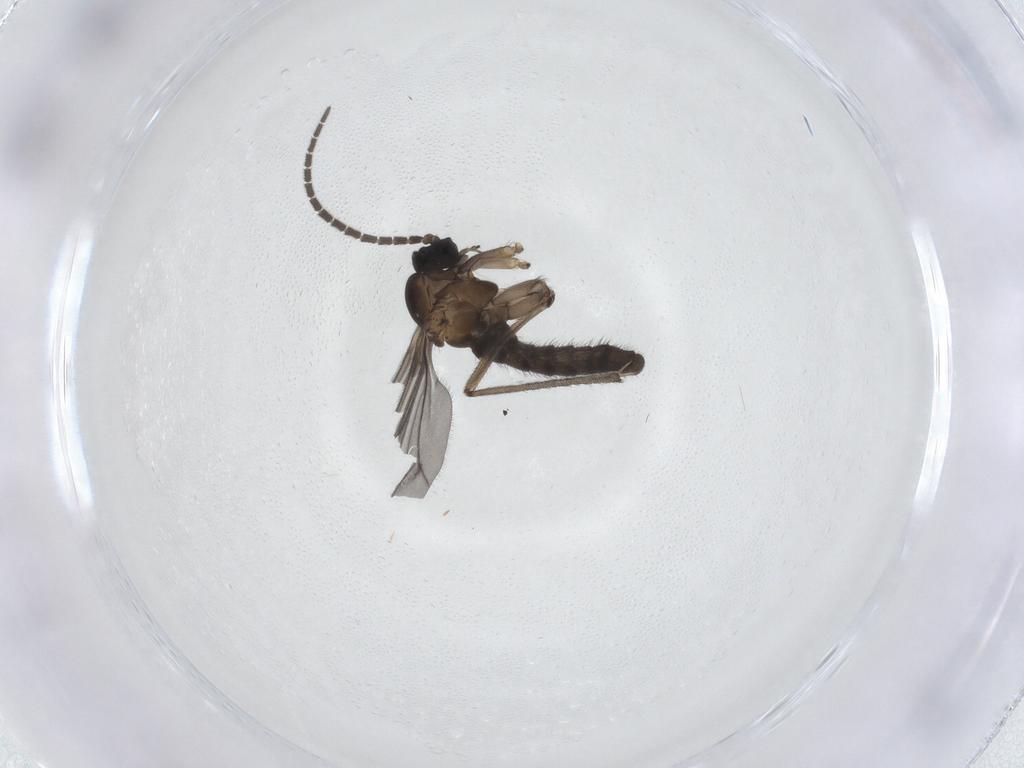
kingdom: Animalia
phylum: Arthropoda
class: Insecta
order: Diptera
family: Sciaridae
